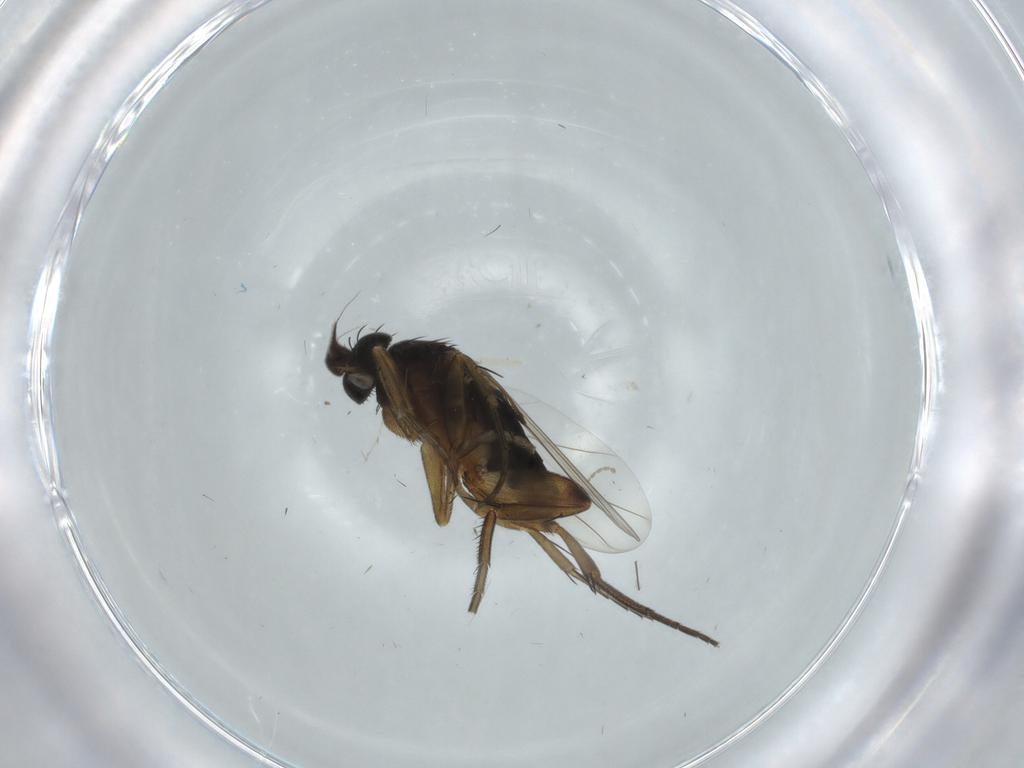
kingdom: Animalia
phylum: Arthropoda
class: Insecta
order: Diptera
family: Phoridae
